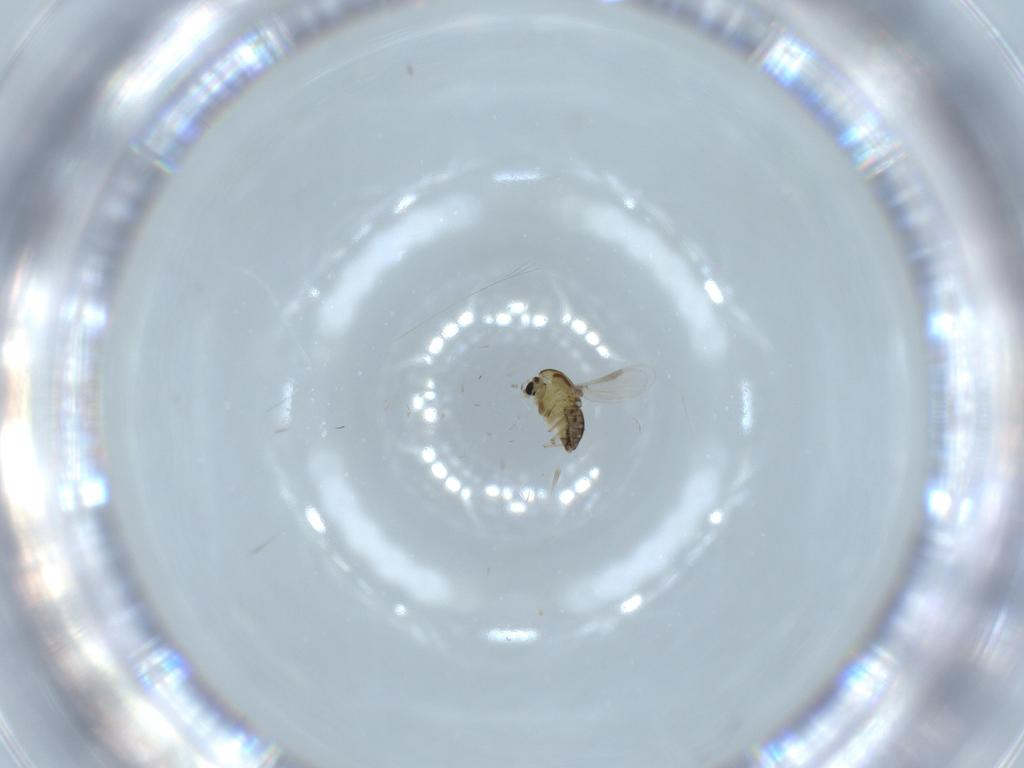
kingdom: Animalia
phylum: Arthropoda
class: Insecta
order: Diptera
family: Chironomidae
